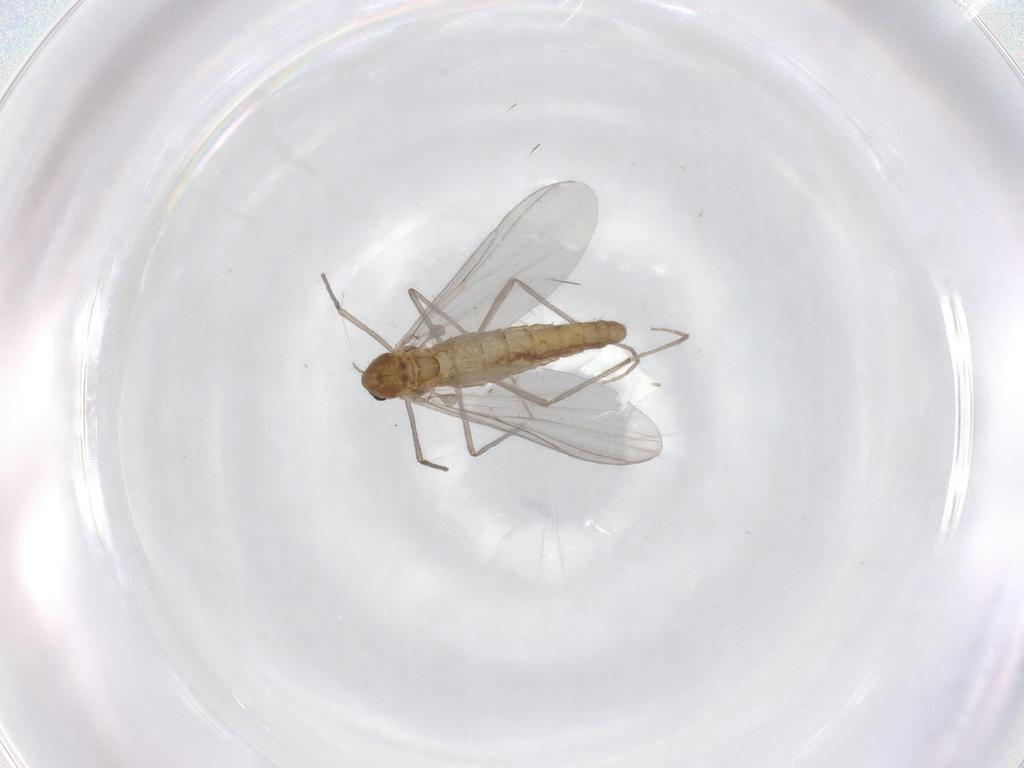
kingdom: Animalia
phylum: Arthropoda
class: Insecta
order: Diptera
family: Chironomidae
